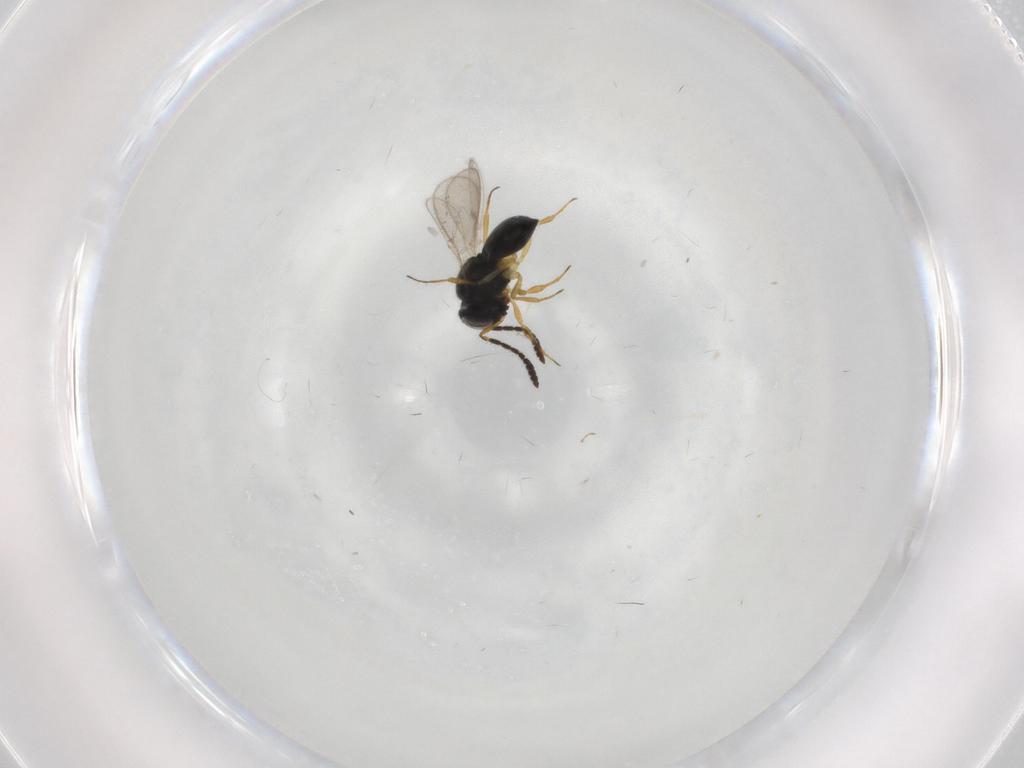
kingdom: Animalia
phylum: Arthropoda
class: Insecta
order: Hymenoptera
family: Scelionidae
